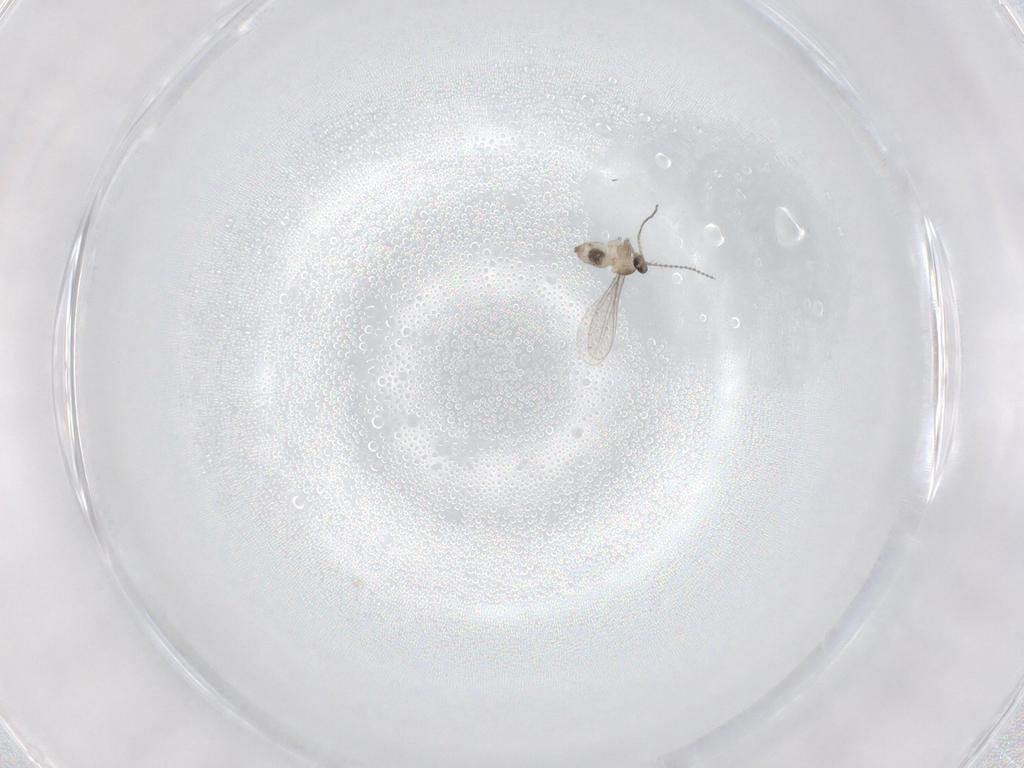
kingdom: Animalia
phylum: Arthropoda
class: Insecta
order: Diptera
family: Cecidomyiidae
